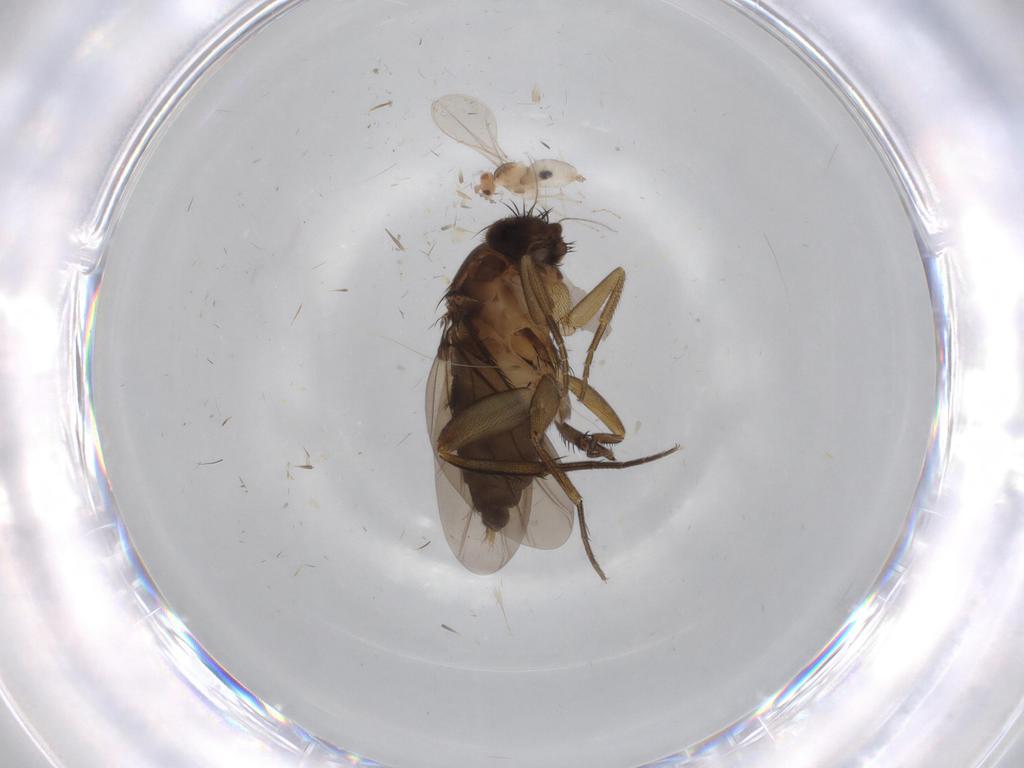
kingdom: Animalia
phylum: Arthropoda
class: Insecta
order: Diptera
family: Phoridae
